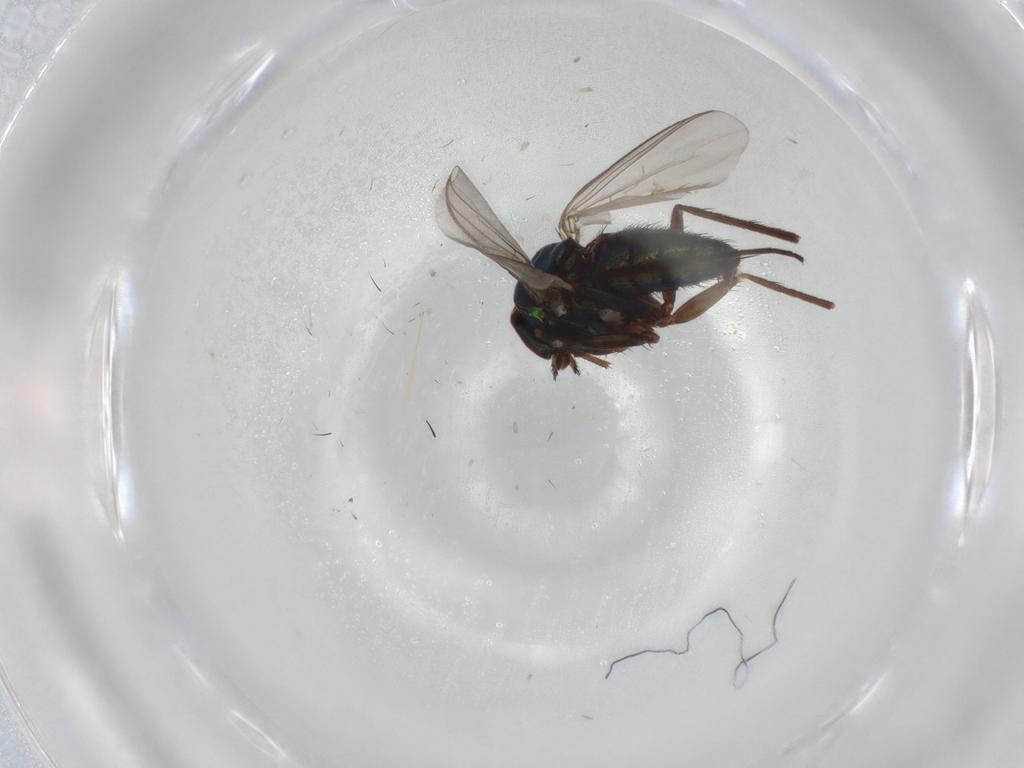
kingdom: Animalia
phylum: Arthropoda
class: Insecta
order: Diptera
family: Dolichopodidae
